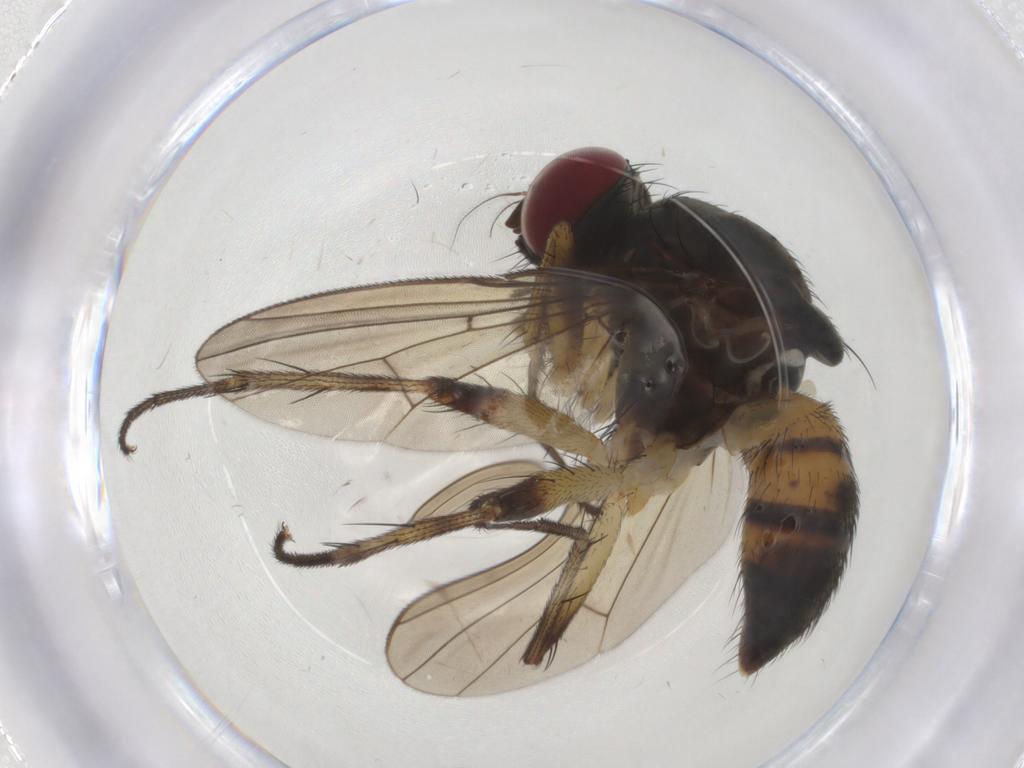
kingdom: Animalia
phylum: Arthropoda
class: Insecta
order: Diptera
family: Muscidae
